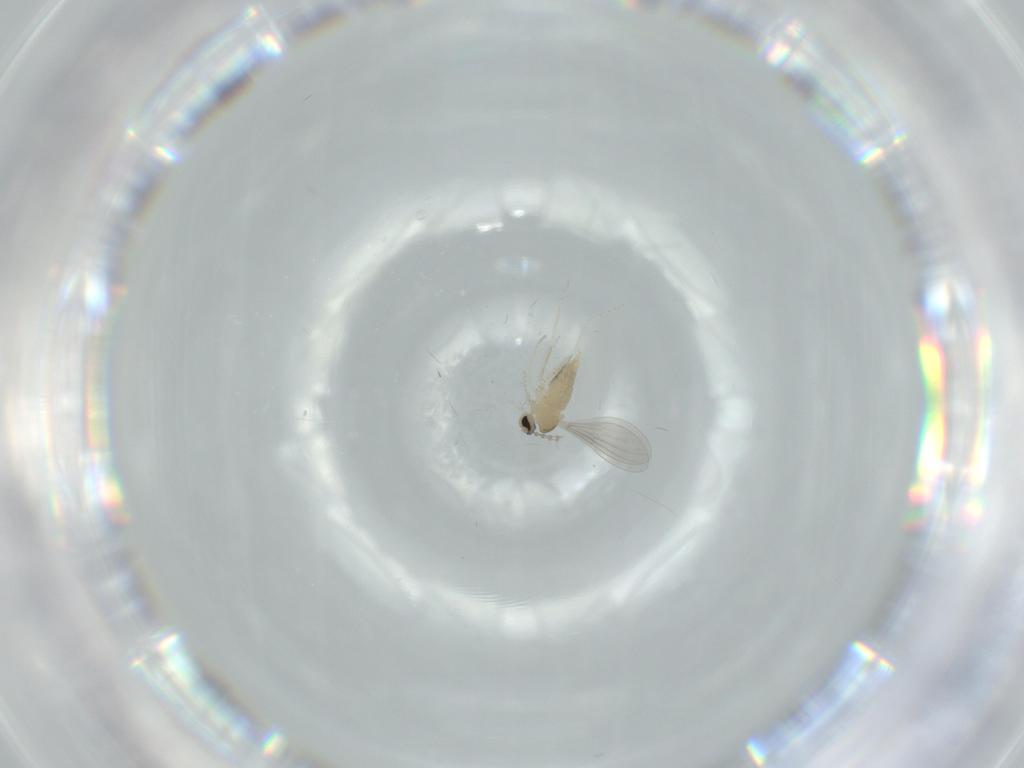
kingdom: Animalia
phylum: Arthropoda
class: Insecta
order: Diptera
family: Cecidomyiidae
